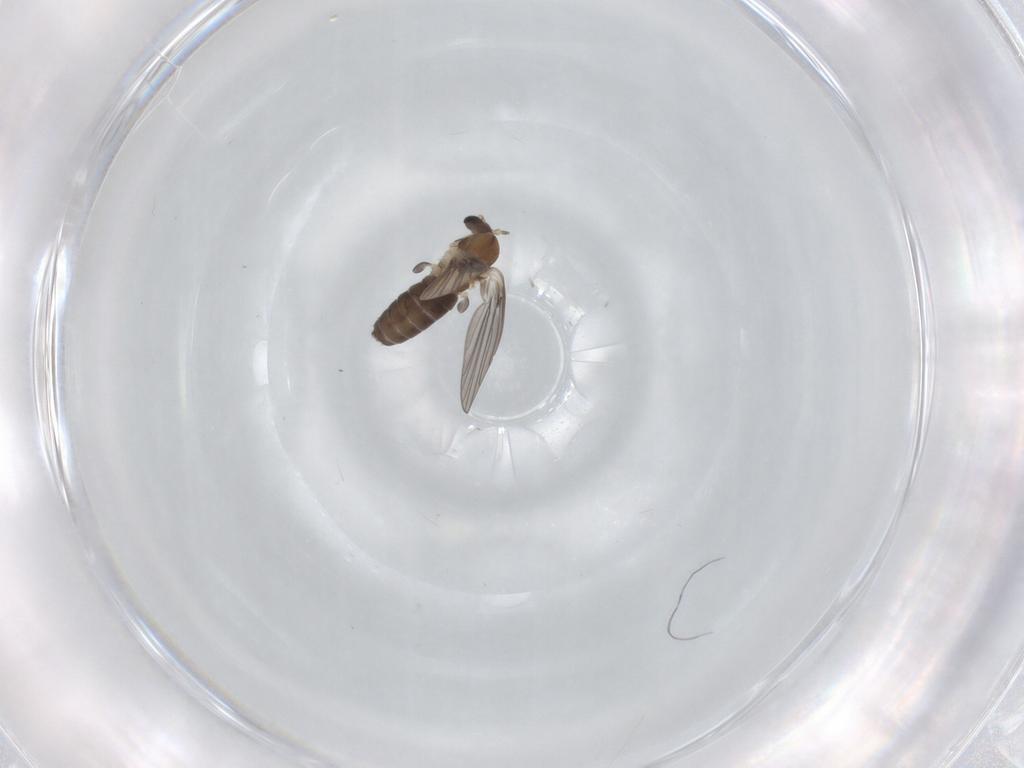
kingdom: Animalia
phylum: Arthropoda
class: Insecta
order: Diptera
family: Psychodidae
